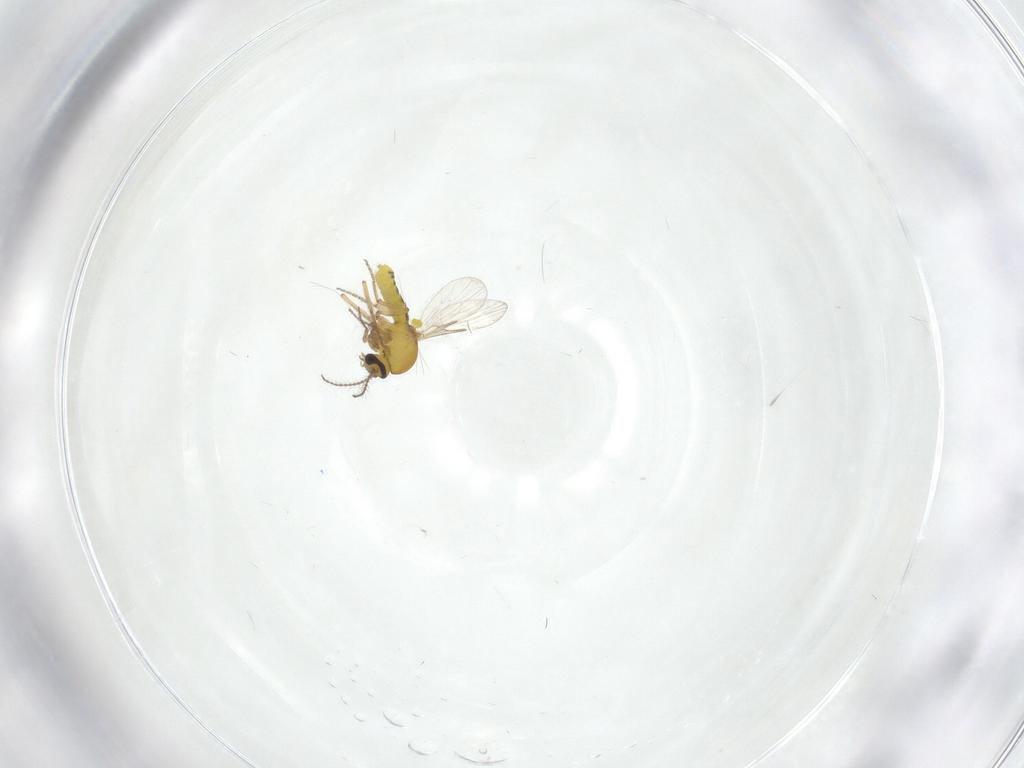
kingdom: Animalia
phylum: Arthropoda
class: Insecta
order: Diptera
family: Ceratopogonidae
